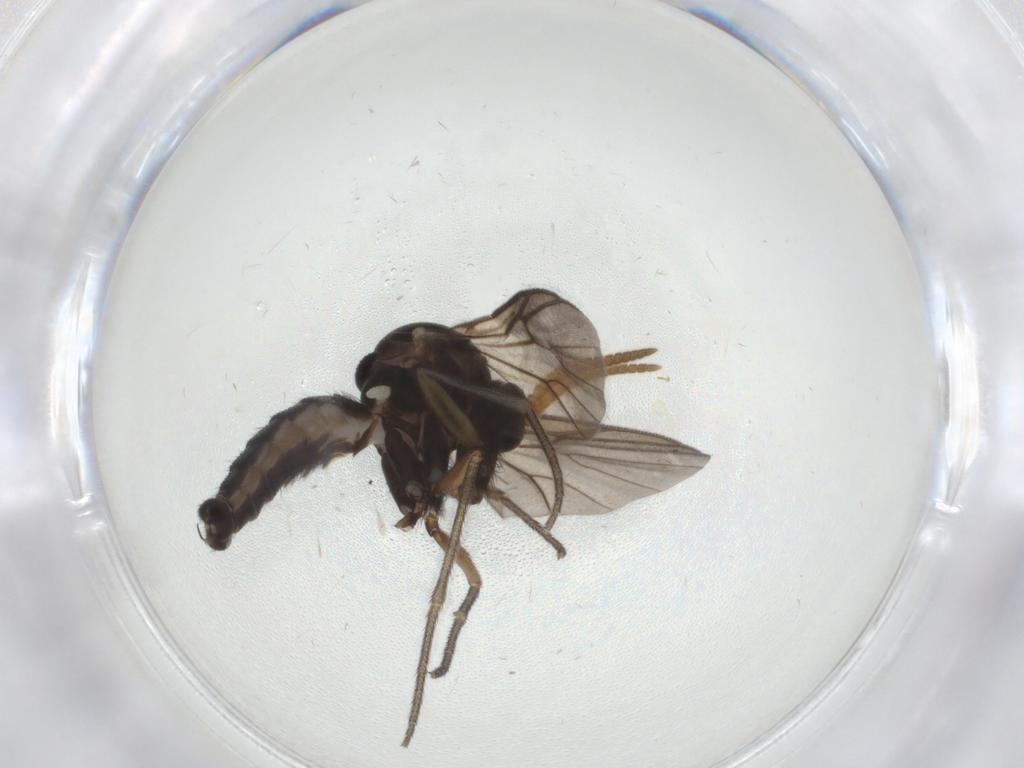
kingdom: Animalia
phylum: Arthropoda
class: Insecta
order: Diptera
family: Mycetophilidae
